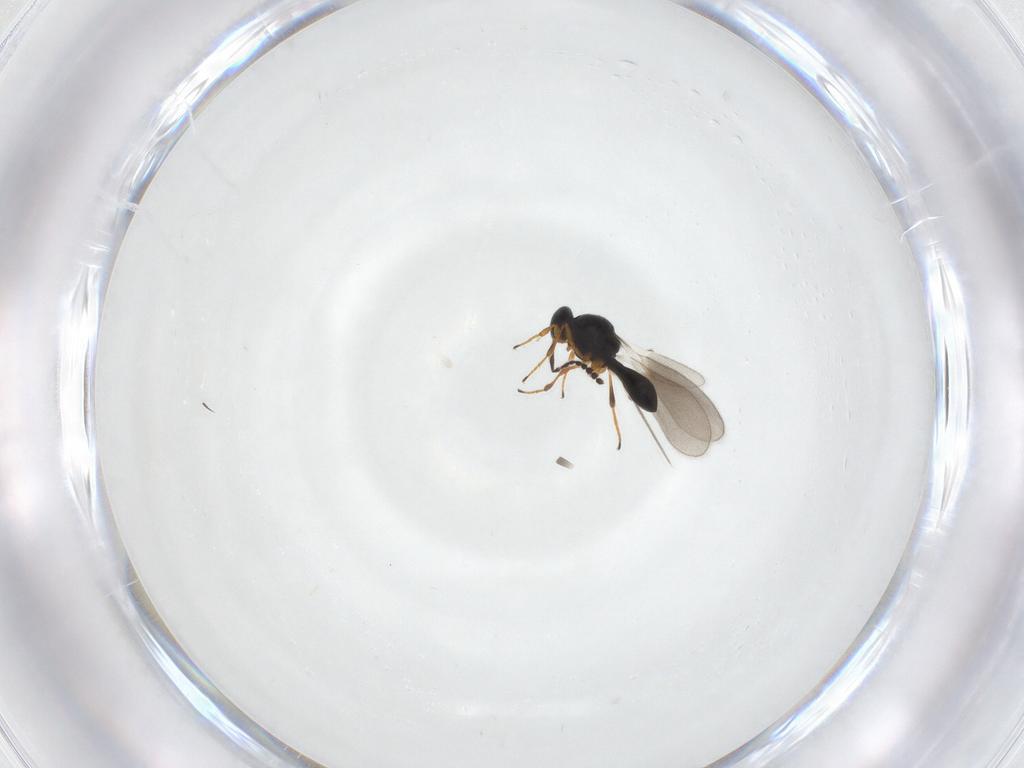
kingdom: Animalia
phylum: Arthropoda
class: Insecta
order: Hymenoptera
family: Platygastridae
